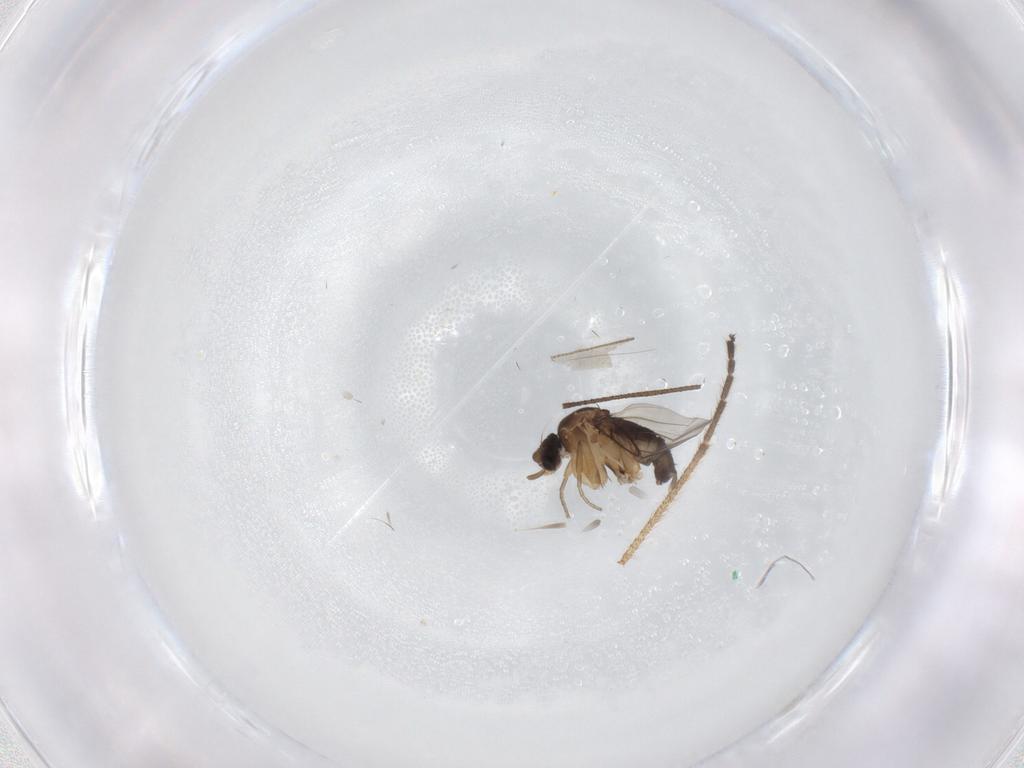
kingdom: Animalia
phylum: Arthropoda
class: Insecta
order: Diptera
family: Phoridae
